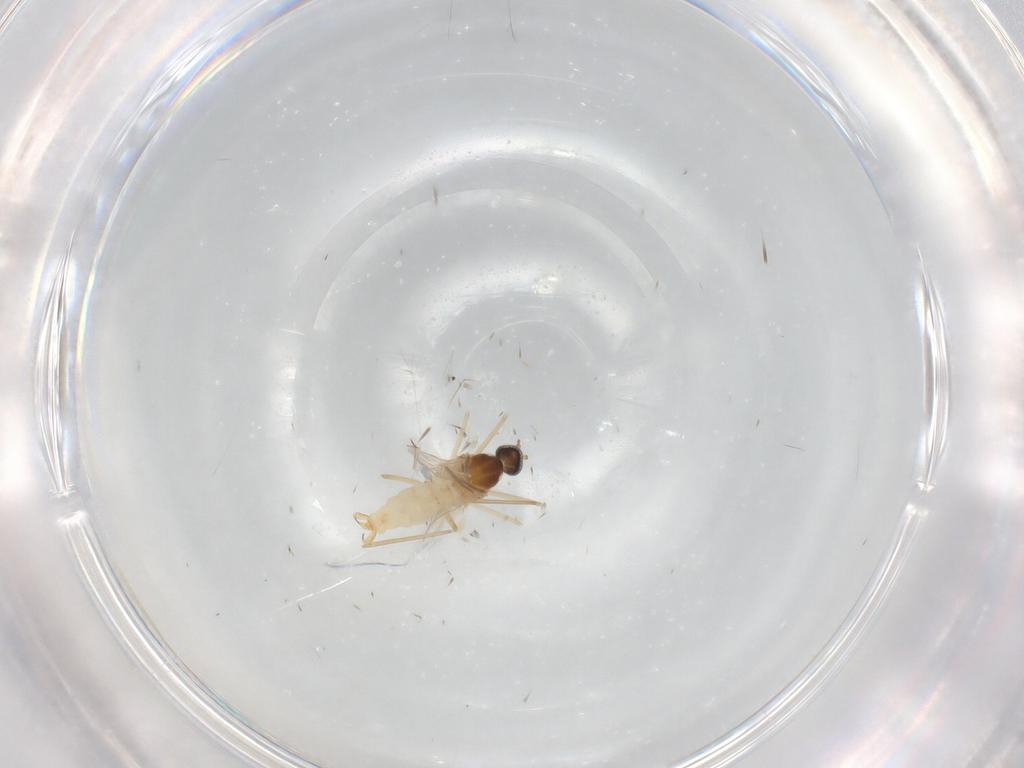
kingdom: Animalia
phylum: Arthropoda
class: Insecta
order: Diptera
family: Cecidomyiidae
